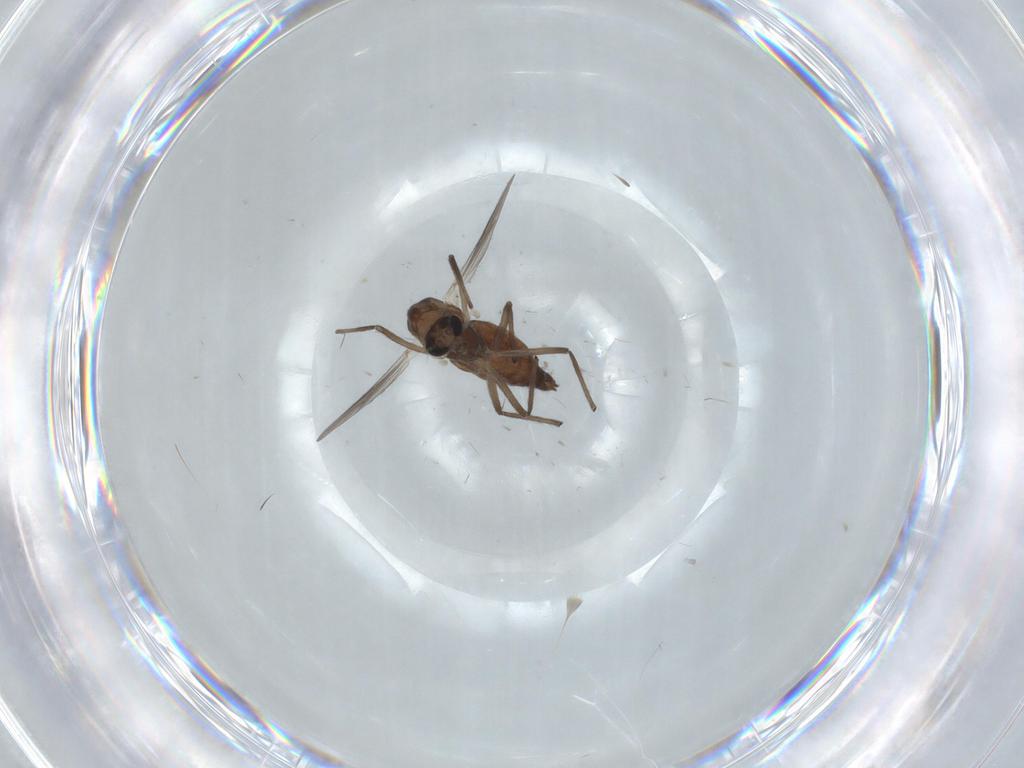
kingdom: Animalia
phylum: Arthropoda
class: Insecta
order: Diptera
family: Chironomidae
